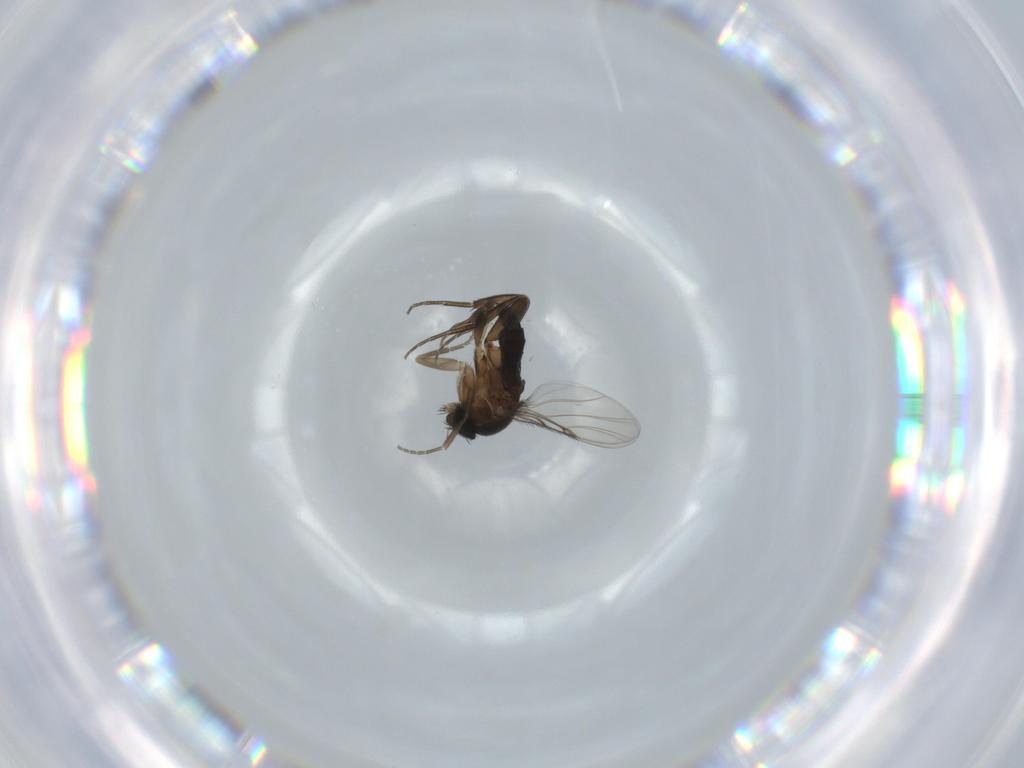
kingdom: Animalia
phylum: Arthropoda
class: Insecta
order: Diptera
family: Phoridae
